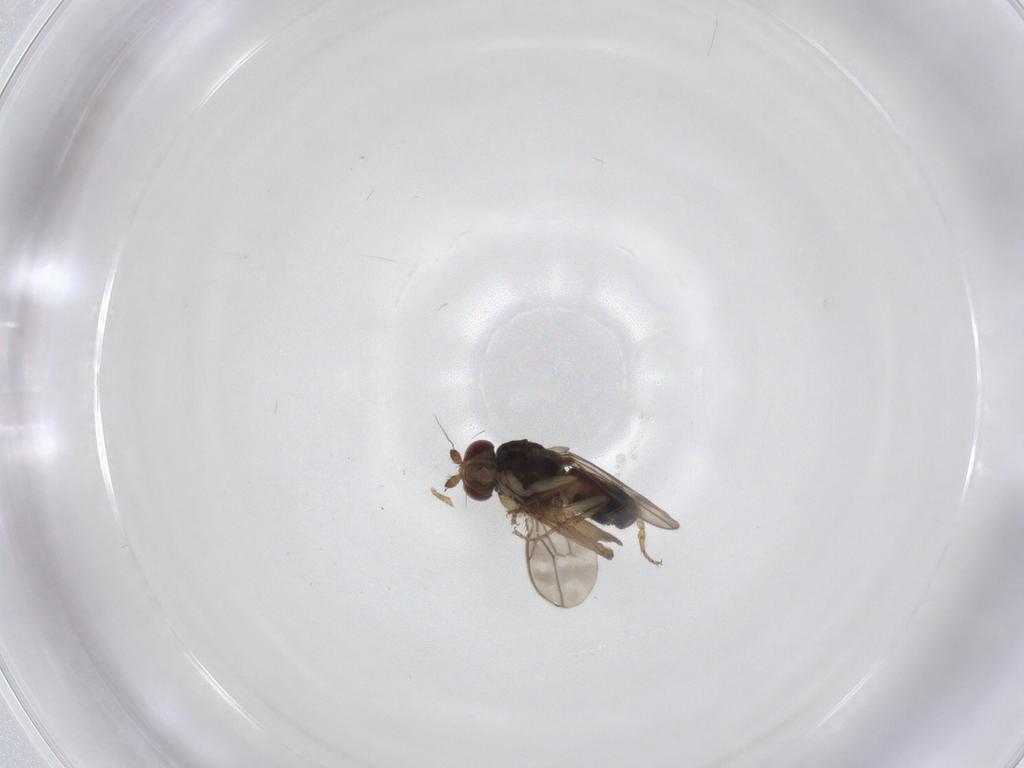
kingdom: Animalia
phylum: Arthropoda
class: Insecta
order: Diptera
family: Sphaeroceridae
